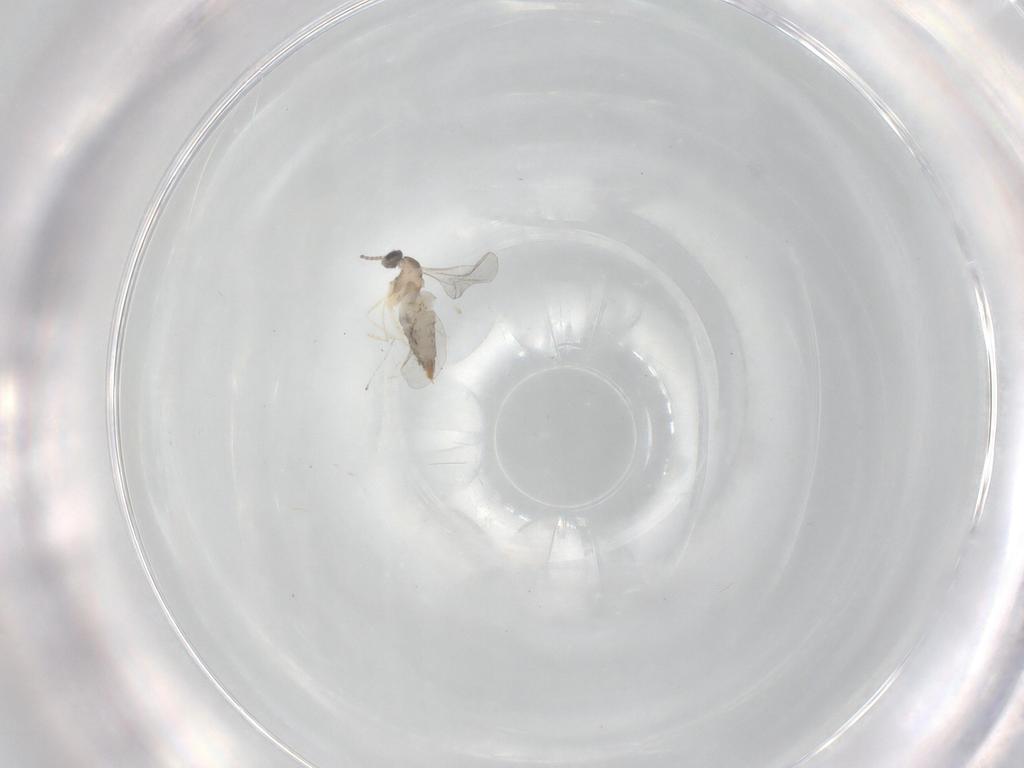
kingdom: Animalia
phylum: Arthropoda
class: Insecta
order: Diptera
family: Cecidomyiidae
